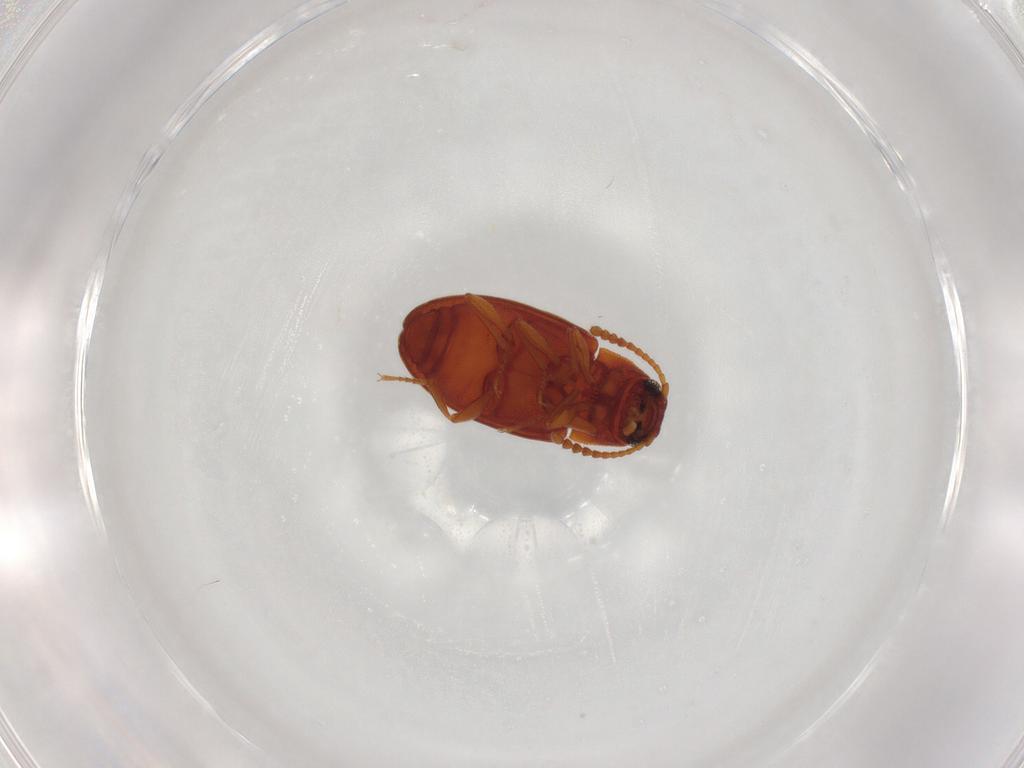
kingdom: Animalia
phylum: Arthropoda
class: Insecta
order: Coleoptera
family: Tenebrionidae
